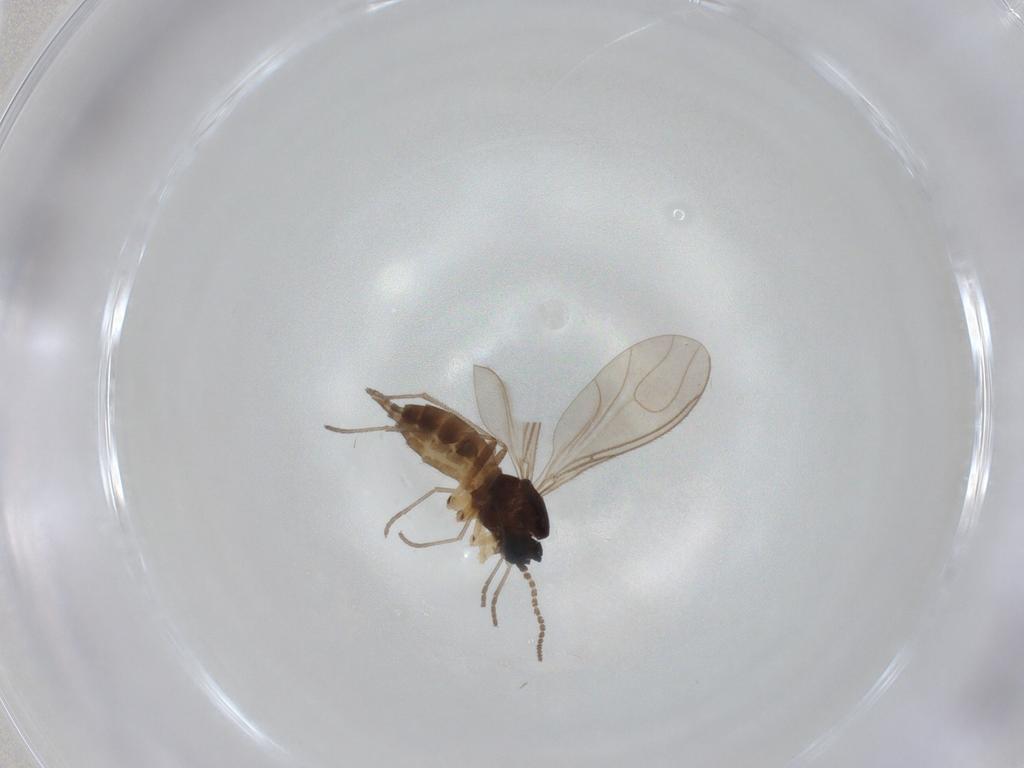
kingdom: Animalia
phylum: Arthropoda
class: Insecta
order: Diptera
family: Sciaridae
